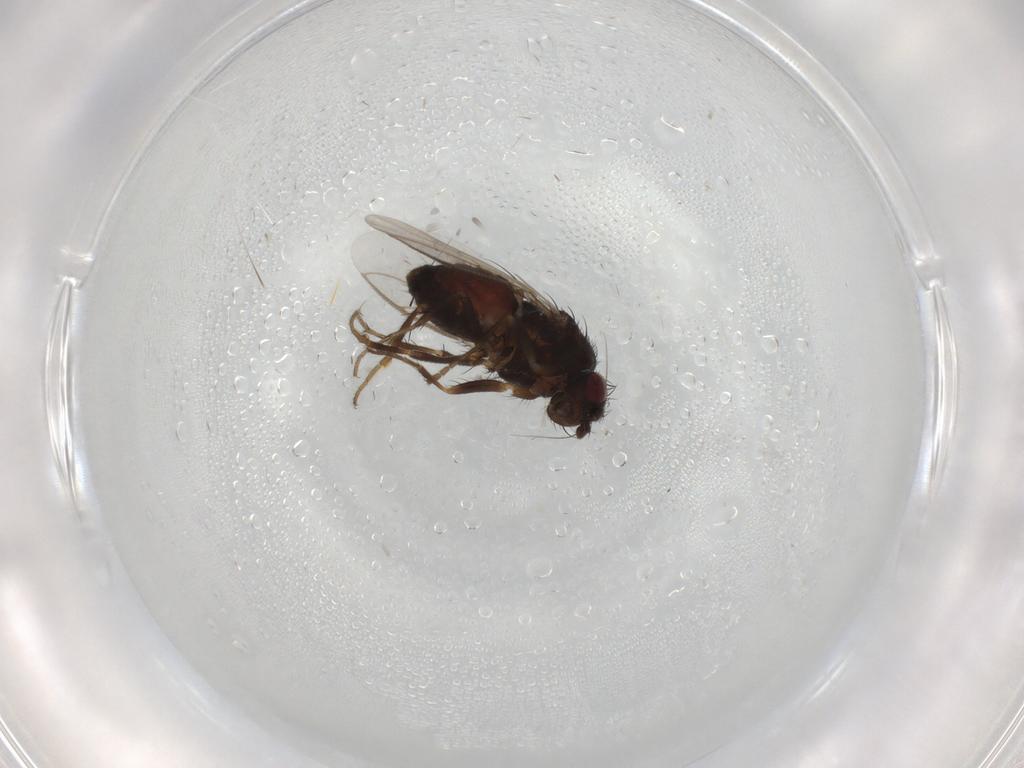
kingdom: Animalia
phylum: Arthropoda
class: Insecta
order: Diptera
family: Sphaeroceridae
